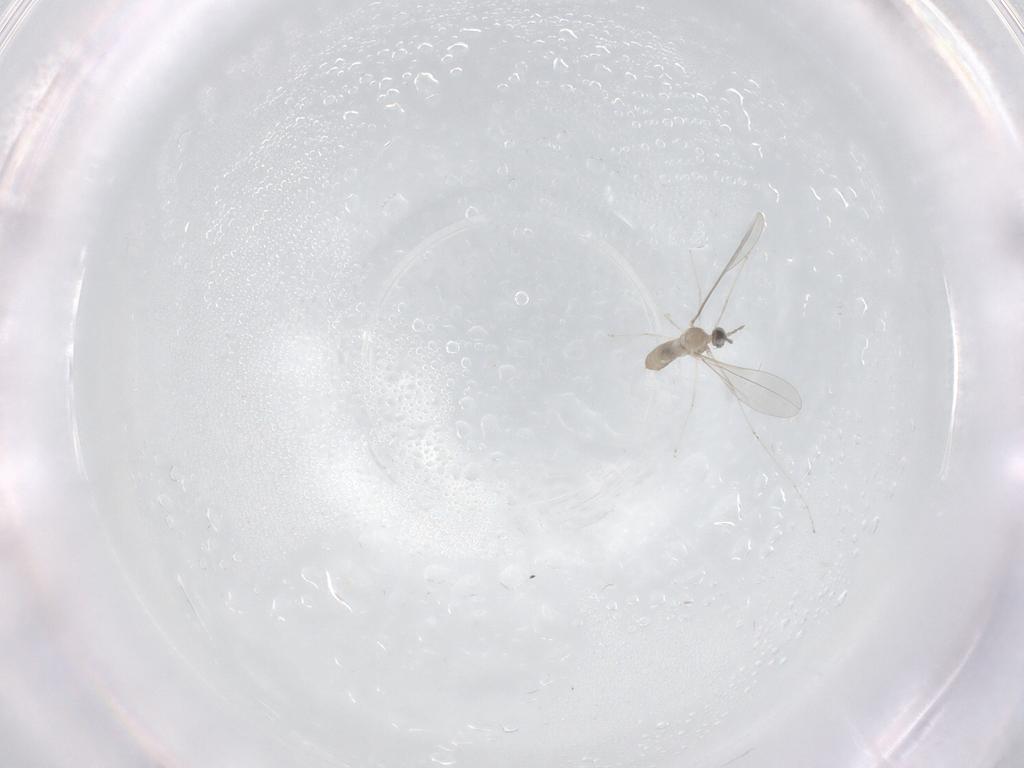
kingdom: Animalia
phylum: Arthropoda
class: Insecta
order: Diptera
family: Cecidomyiidae
